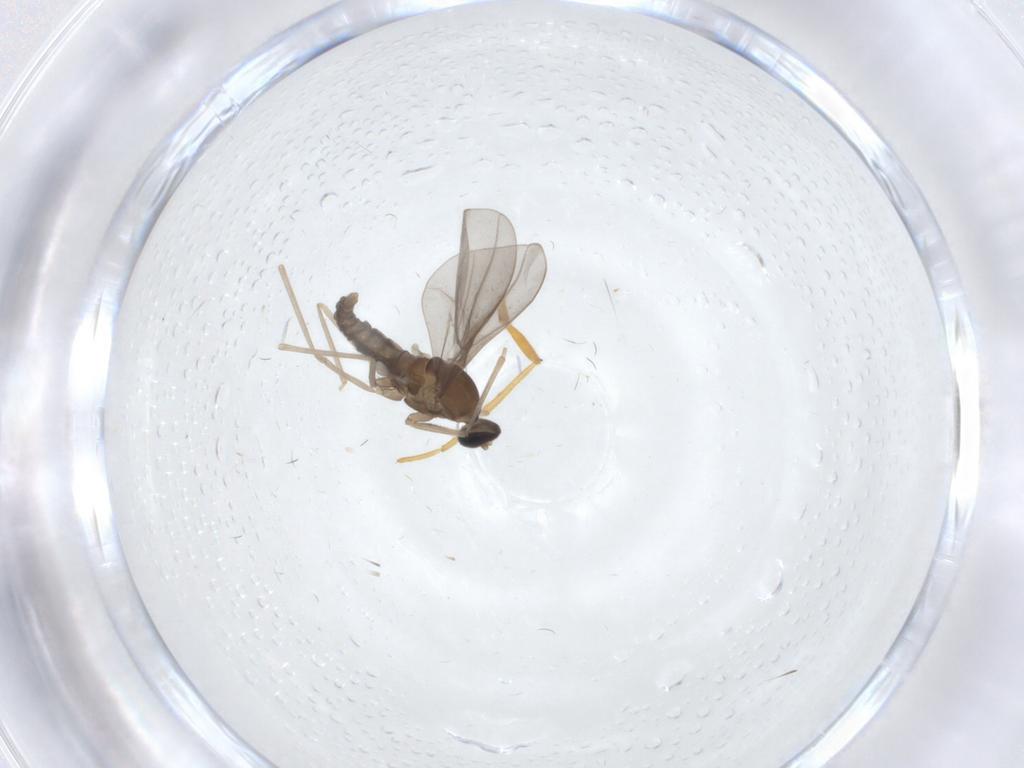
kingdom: Animalia
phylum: Arthropoda
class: Insecta
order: Diptera
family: Cecidomyiidae
